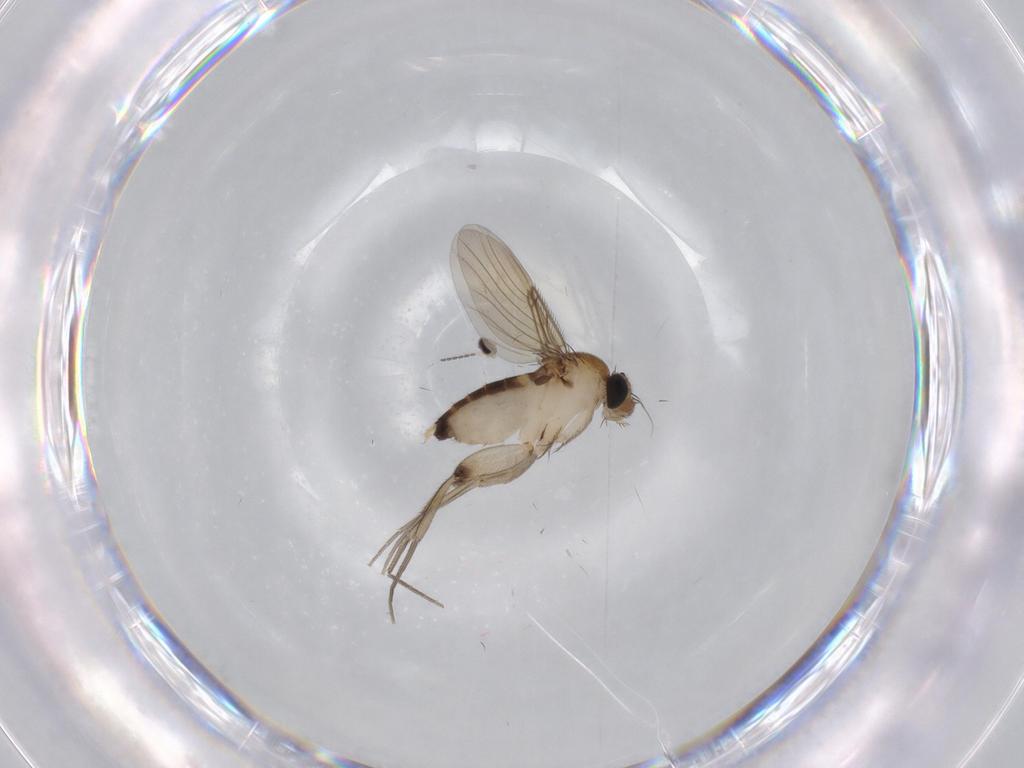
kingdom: Animalia
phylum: Arthropoda
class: Insecta
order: Diptera
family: Phoridae
